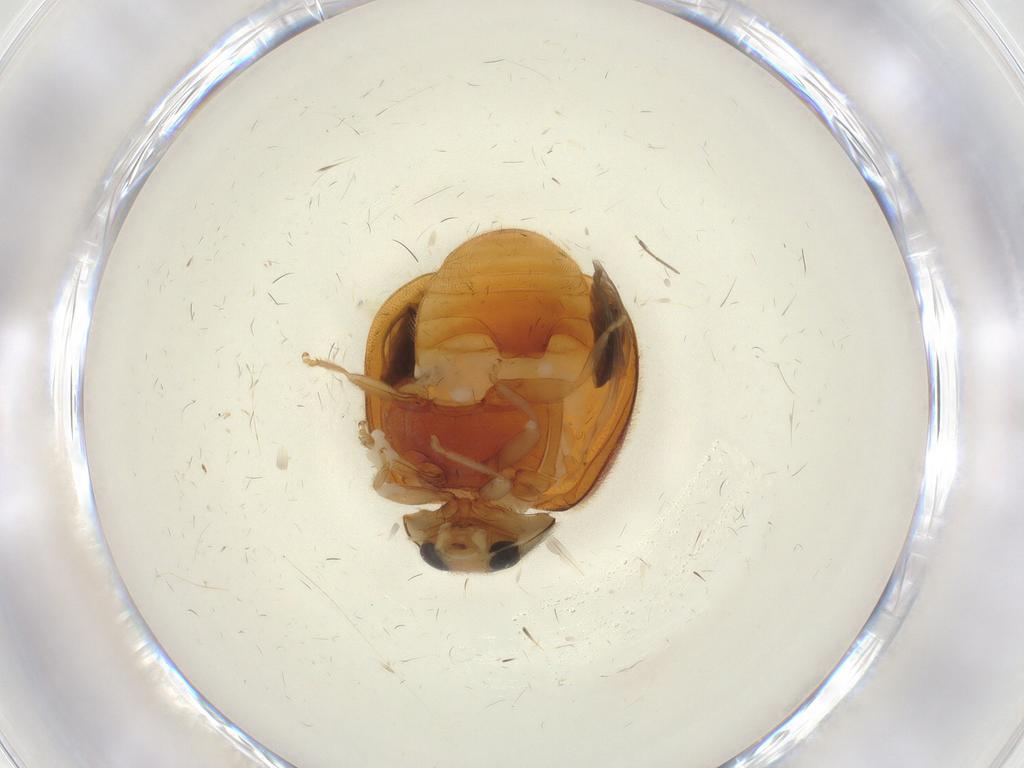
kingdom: Animalia
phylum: Arthropoda
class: Insecta
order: Coleoptera
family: Coccinellidae
